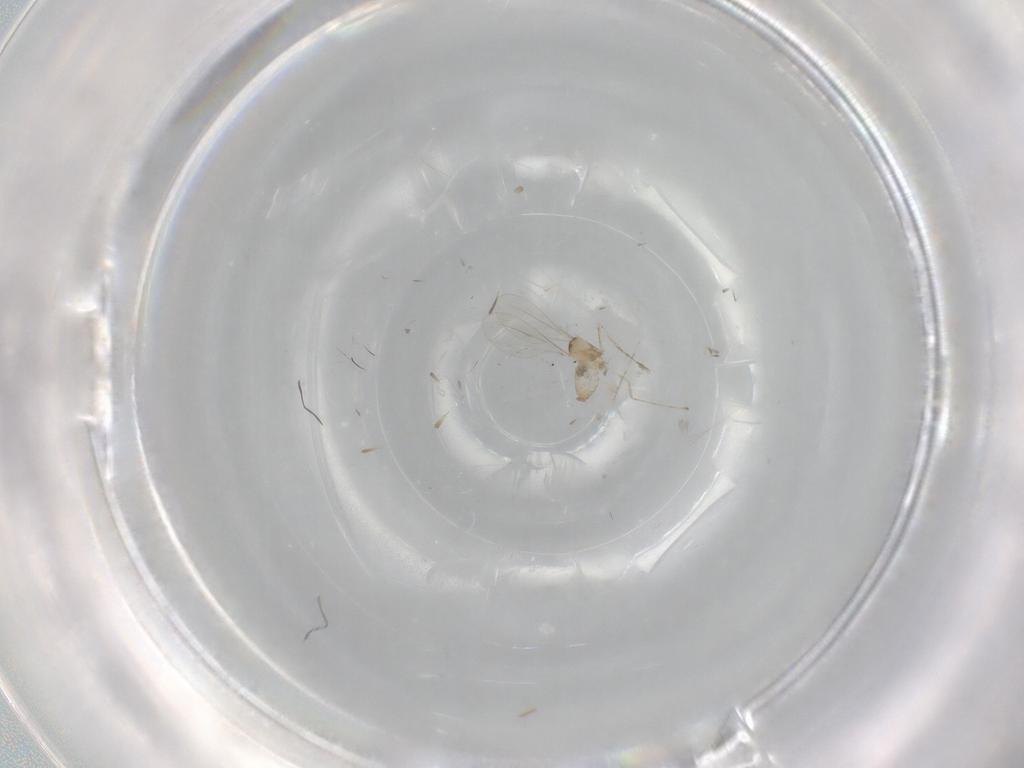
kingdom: Animalia
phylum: Arthropoda
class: Insecta
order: Diptera
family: Cecidomyiidae
